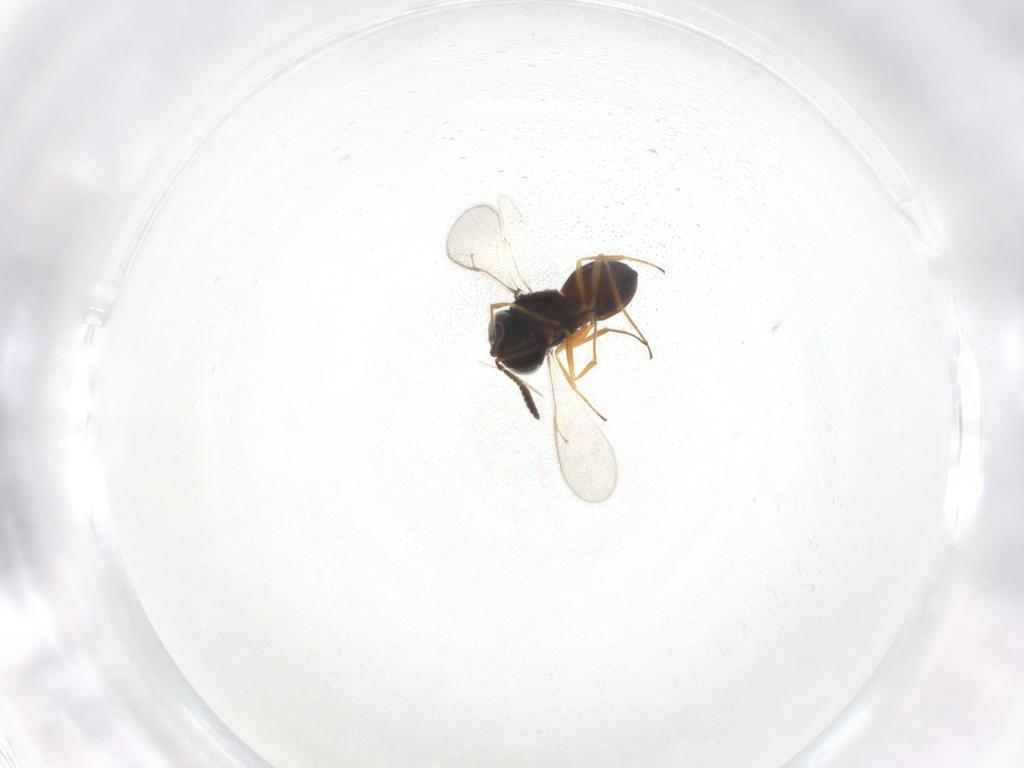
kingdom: Animalia
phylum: Arthropoda
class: Insecta
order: Hymenoptera
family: Scelionidae
